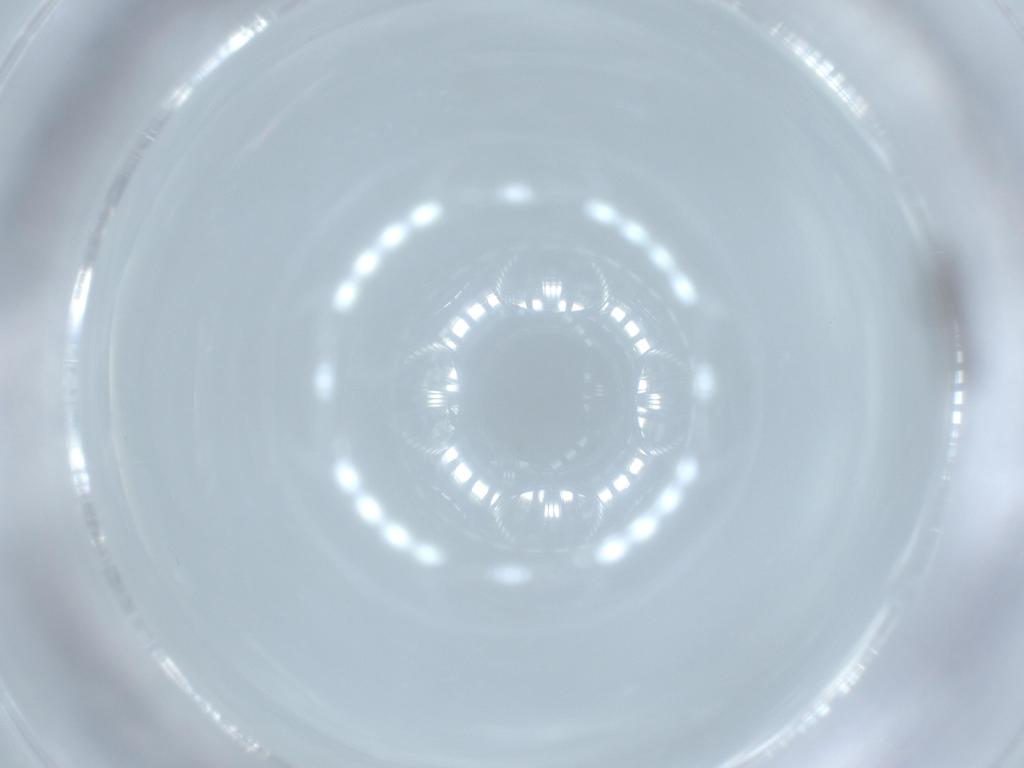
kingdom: Animalia
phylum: Arthropoda
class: Insecta
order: Diptera
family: Sciaridae
